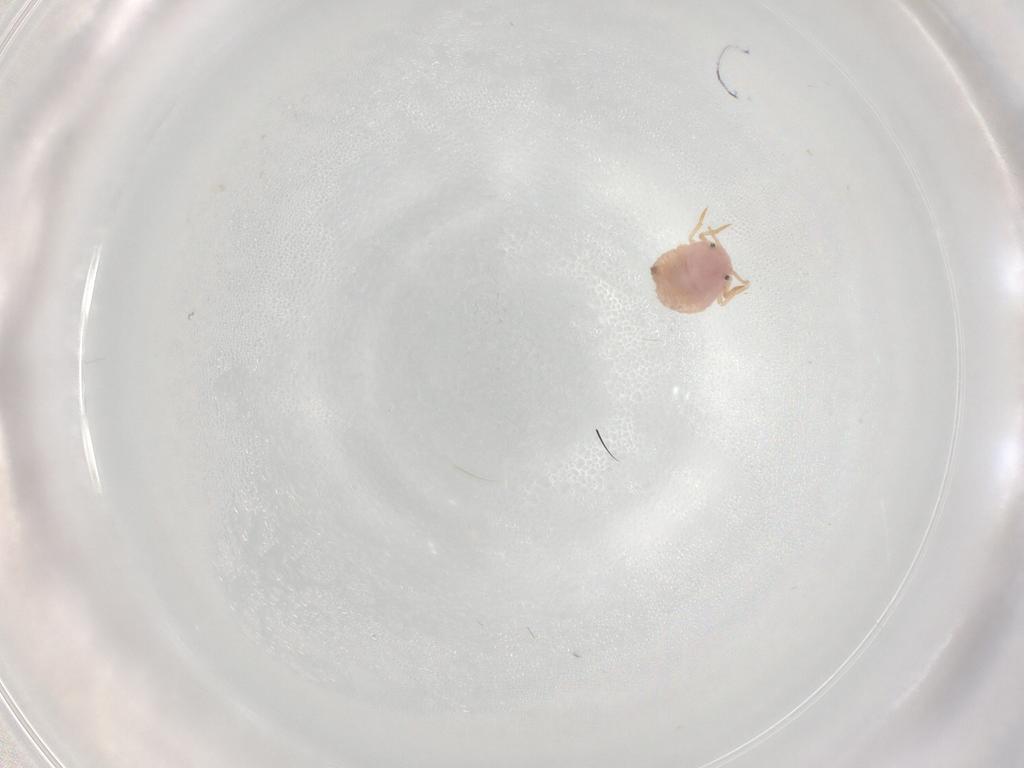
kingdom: Animalia
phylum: Arthropoda
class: Insecta
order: Hemiptera
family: Coccoidea_incertae_sedis
